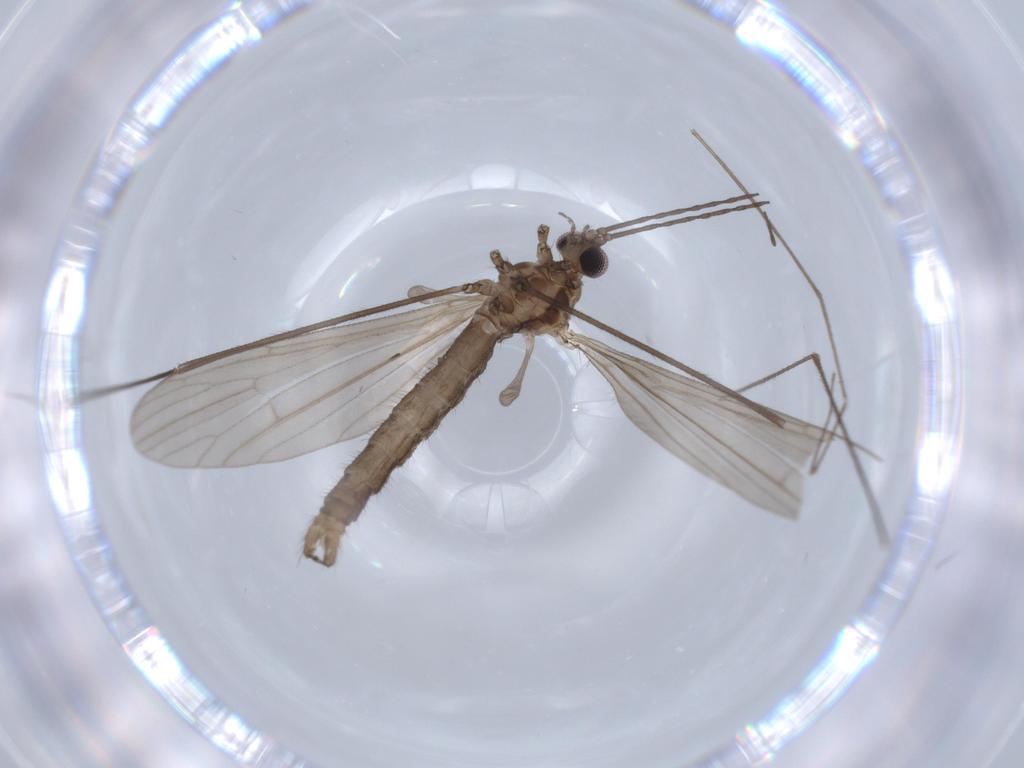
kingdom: Animalia
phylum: Arthropoda
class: Insecta
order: Diptera
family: Limoniidae
